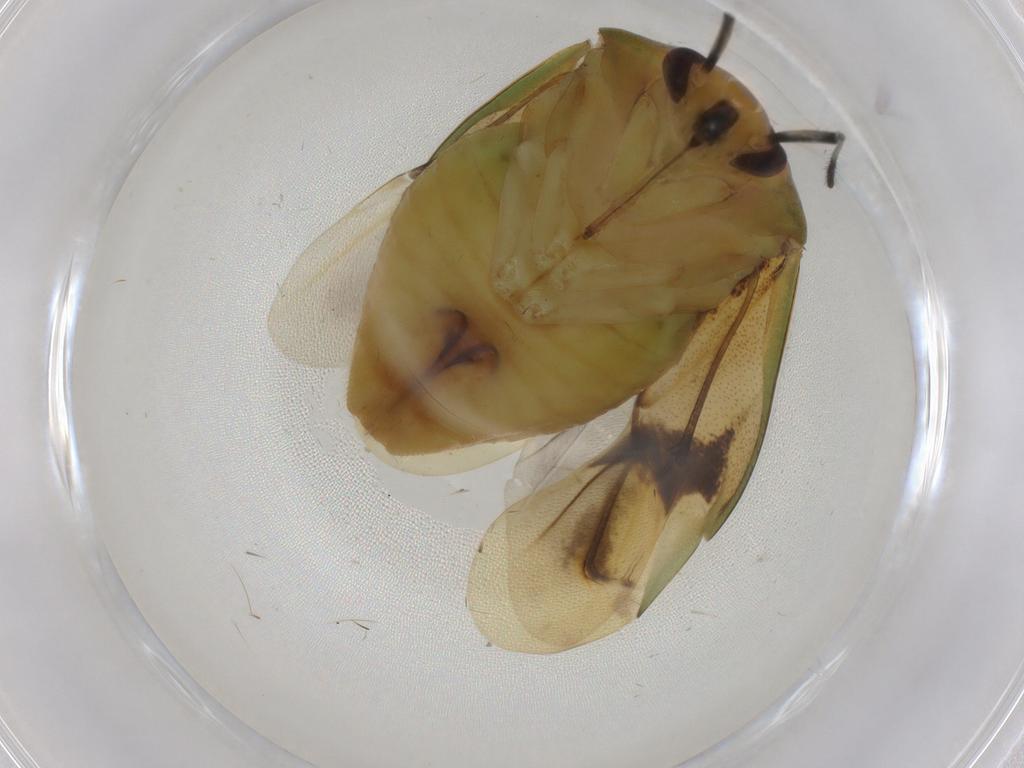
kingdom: Animalia
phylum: Arthropoda
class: Insecta
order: Hemiptera
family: Miridae
